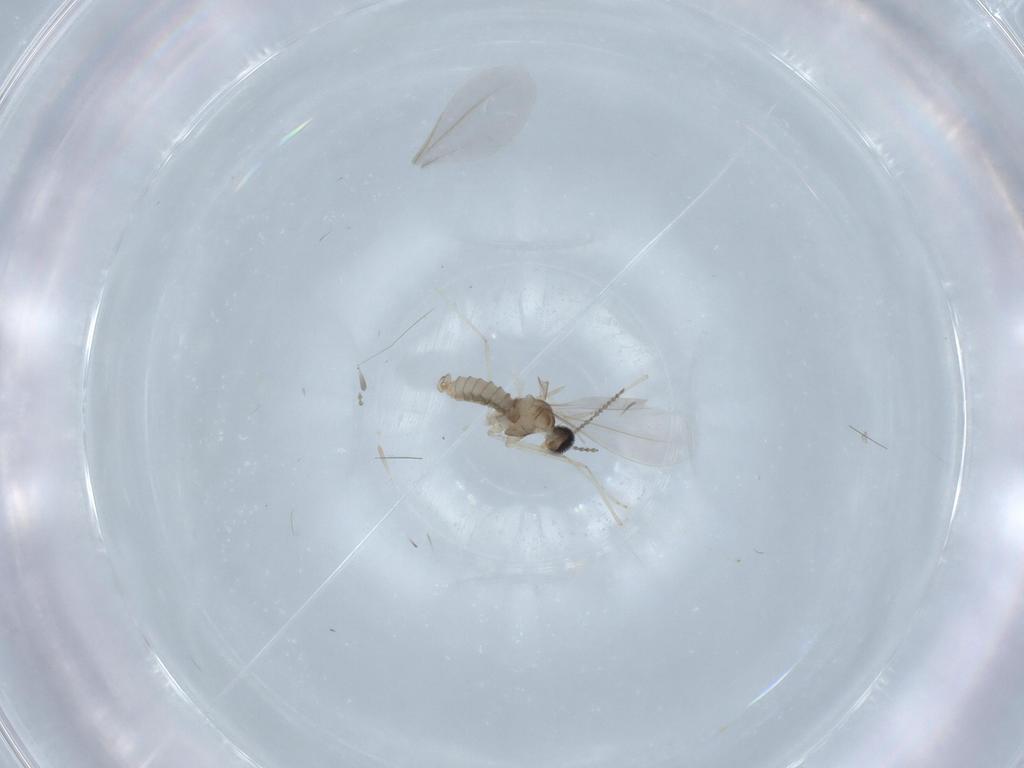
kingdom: Animalia
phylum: Arthropoda
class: Insecta
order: Diptera
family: Cecidomyiidae
